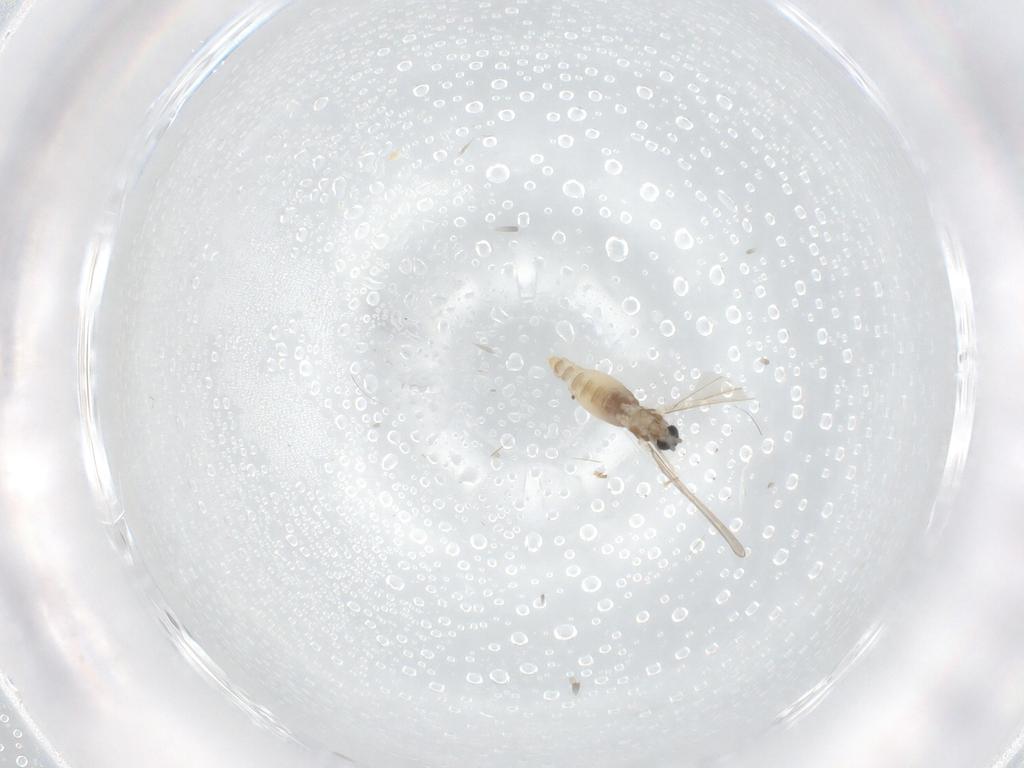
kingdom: Animalia
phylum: Arthropoda
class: Insecta
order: Diptera
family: Cecidomyiidae
